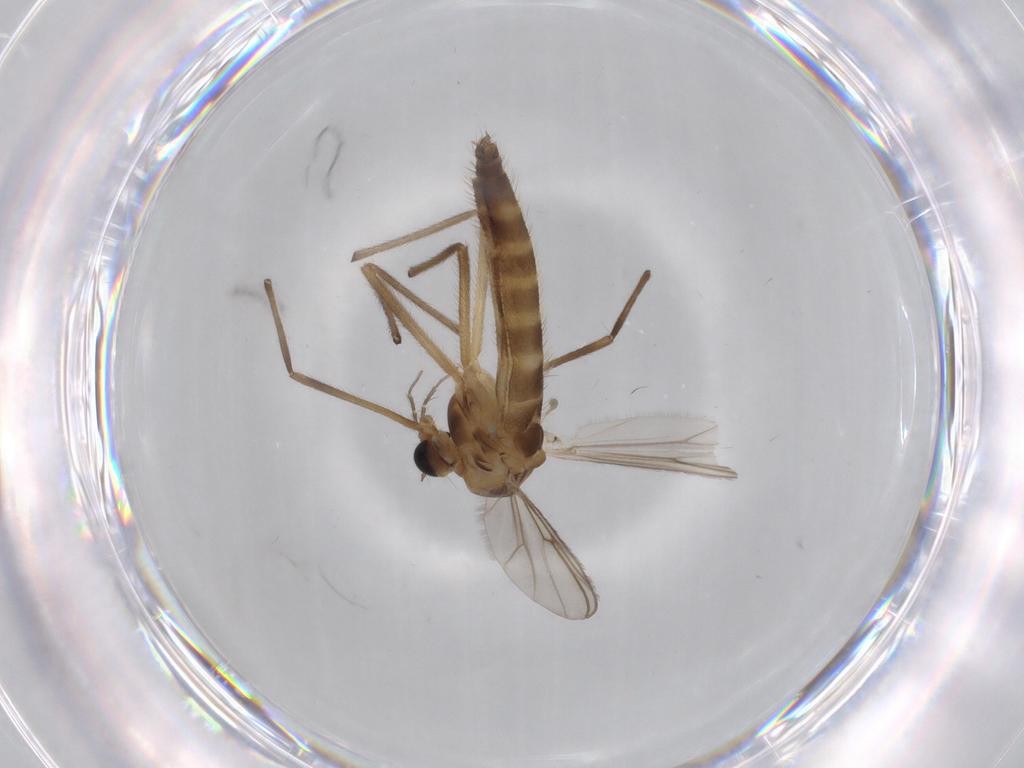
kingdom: Animalia
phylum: Arthropoda
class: Insecta
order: Diptera
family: Chironomidae
